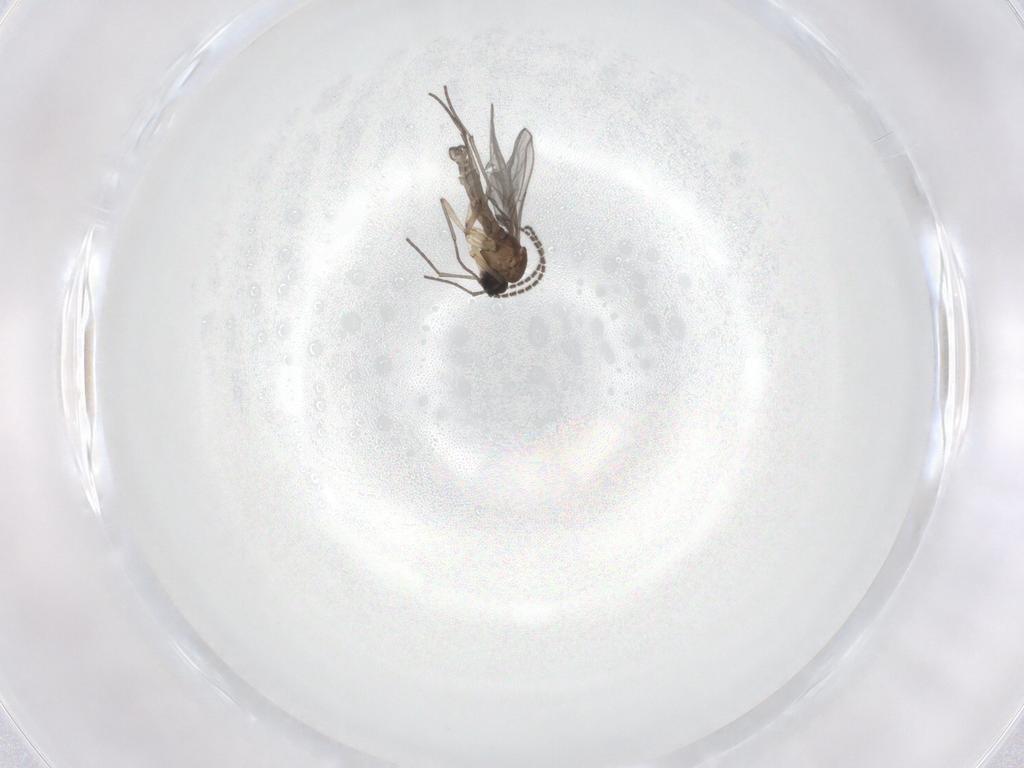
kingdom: Animalia
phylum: Arthropoda
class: Insecta
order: Diptera
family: Sciaridae
